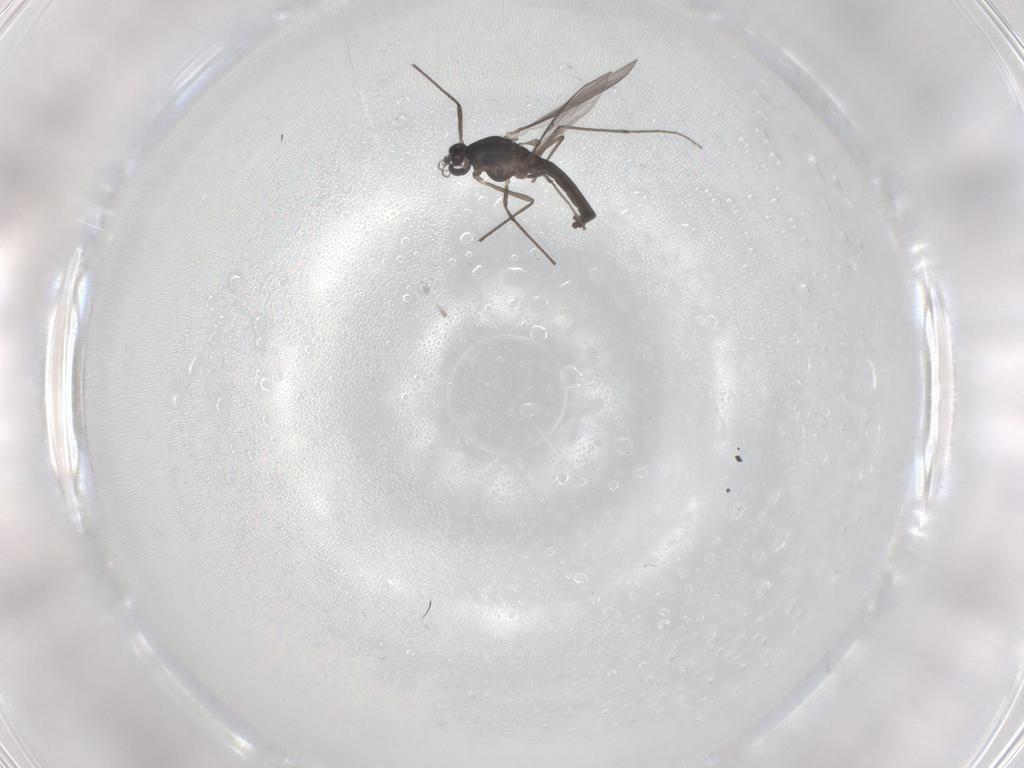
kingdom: Animalia
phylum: Arthropoda
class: Insecta
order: Diptera
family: Chironomidae
